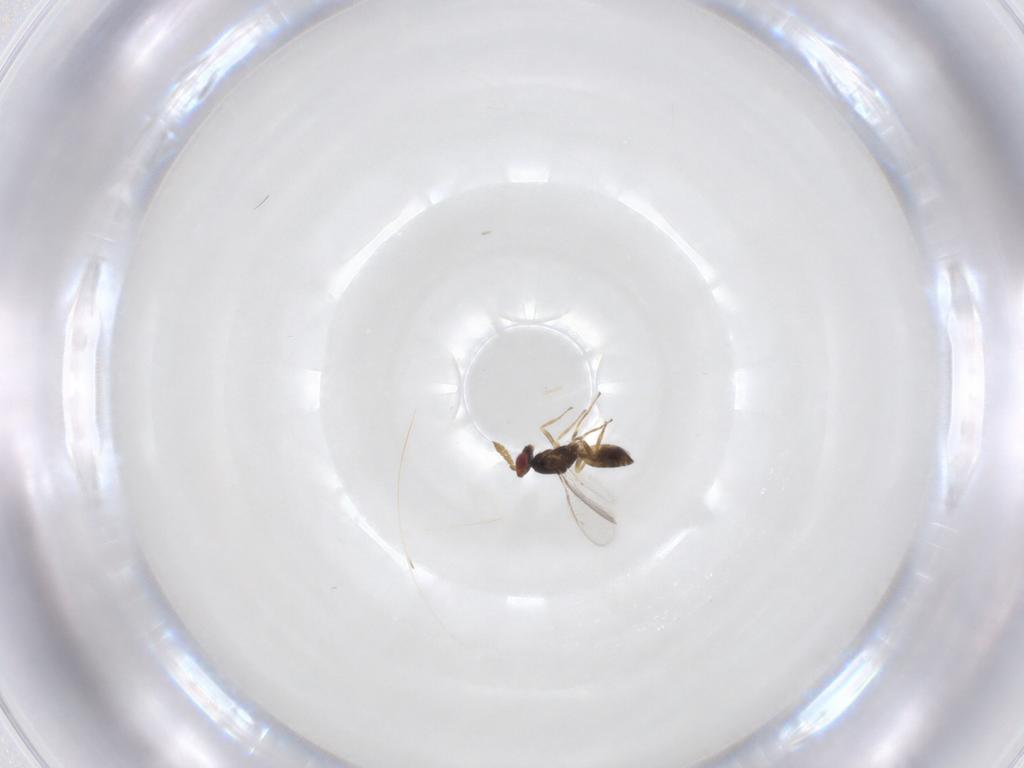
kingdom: Animalia
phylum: Arthropoda
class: Insecta
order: Hymenoptera
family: Eulophidae
